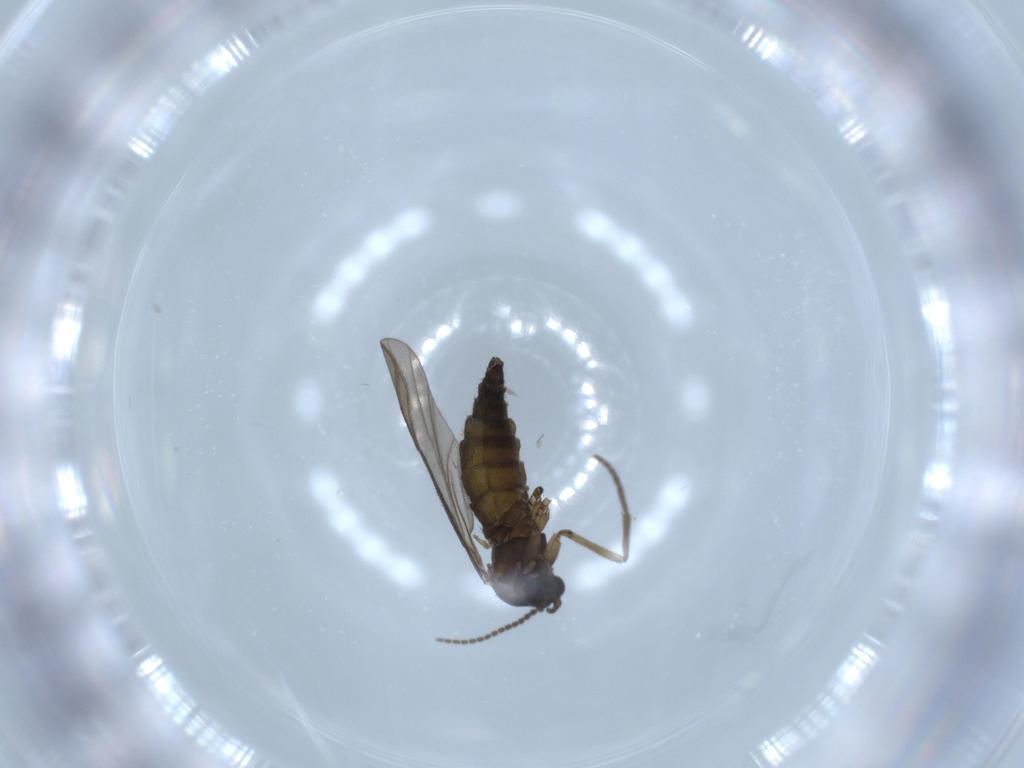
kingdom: Animalia
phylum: Arthropoda
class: Insecta
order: Diptera
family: Sciaridae
